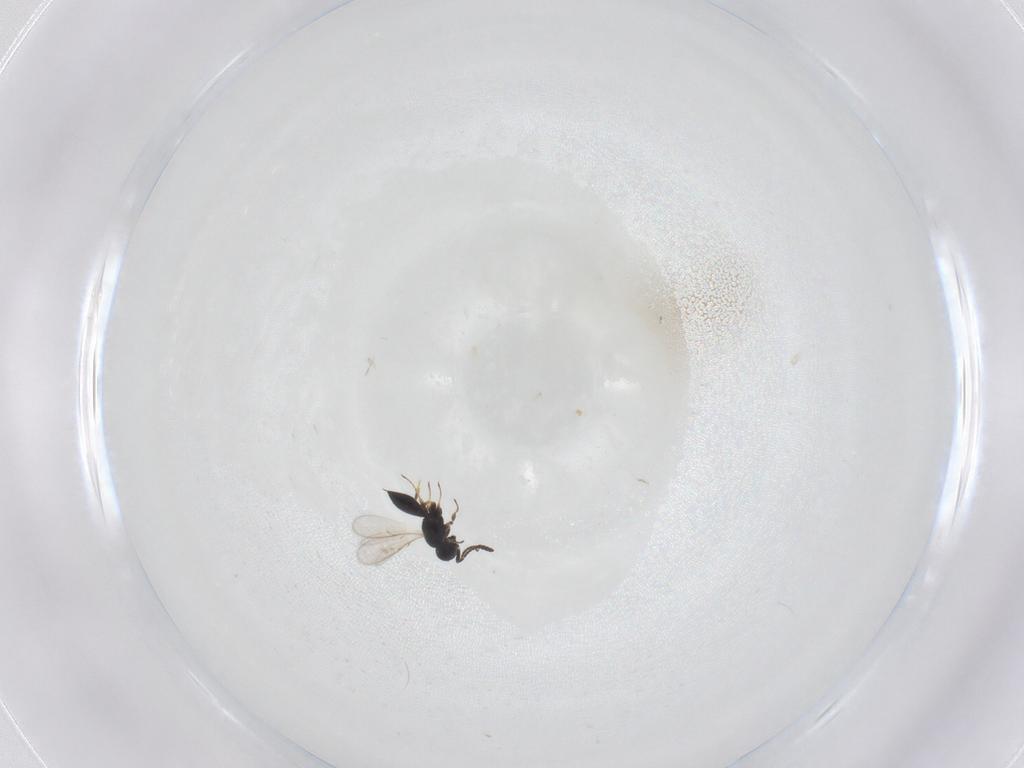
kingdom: Animalia
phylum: Arthropoda
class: Insecta
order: Hymenoptera
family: Scelionidae
